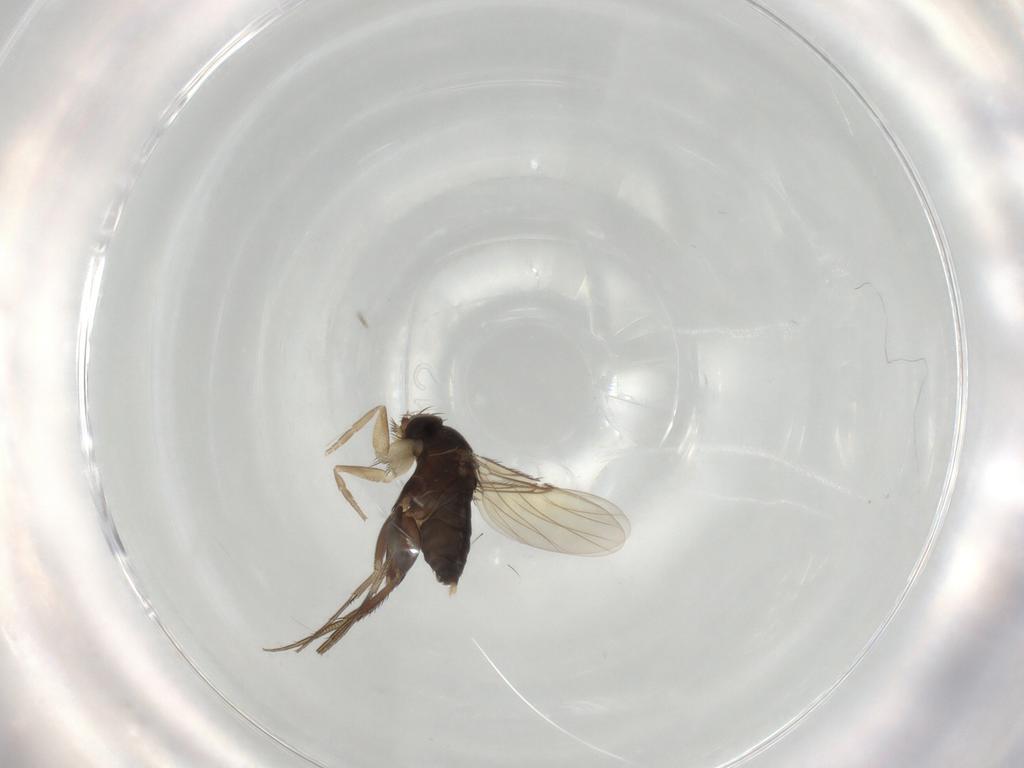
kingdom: Animalia
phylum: Arthropoda
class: Insecta
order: Diptera
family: Phoridae
